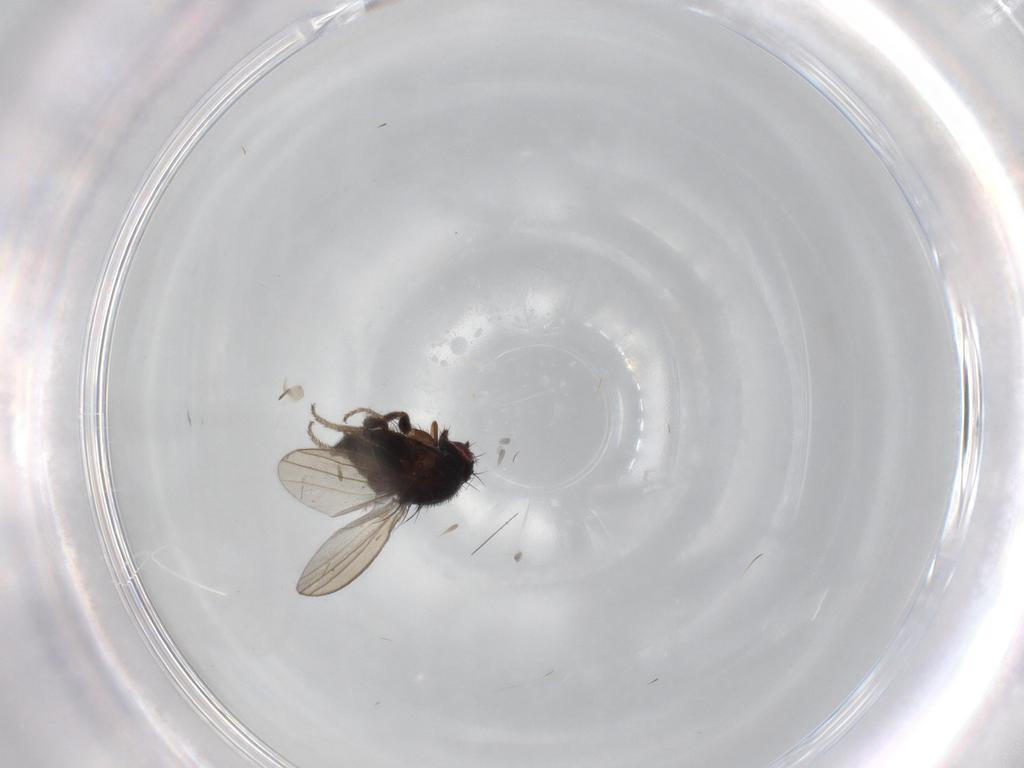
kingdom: Animalia
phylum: Arthropoda
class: Insecta
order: Diptera
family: Milichiidae
